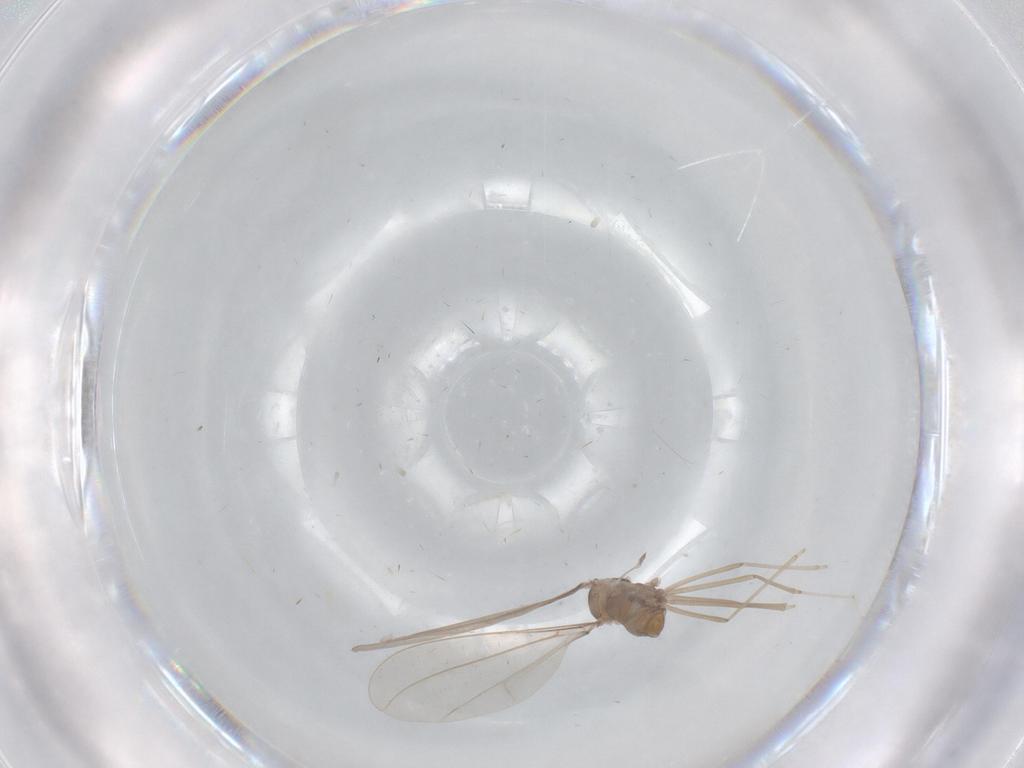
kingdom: Animalia
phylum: Arthropoda
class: Insecta
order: Diptera
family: Cecidomyiidae
